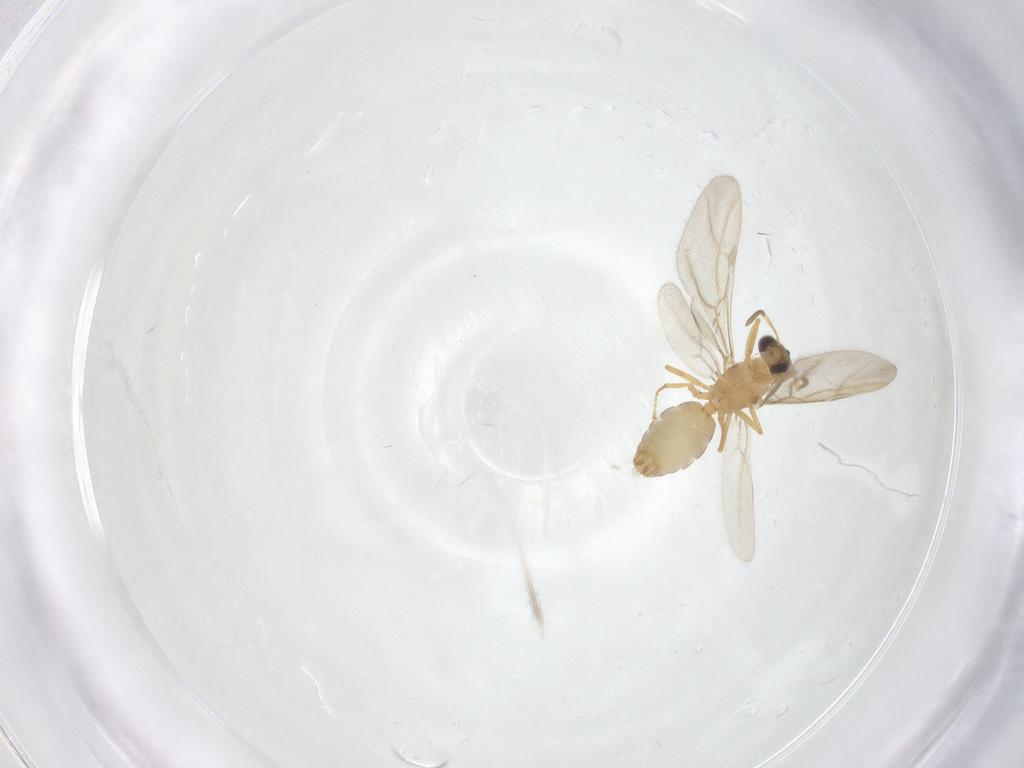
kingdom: Animalia
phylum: Arthropoda
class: Insecta
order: Hymenoptera
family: Formicidae
